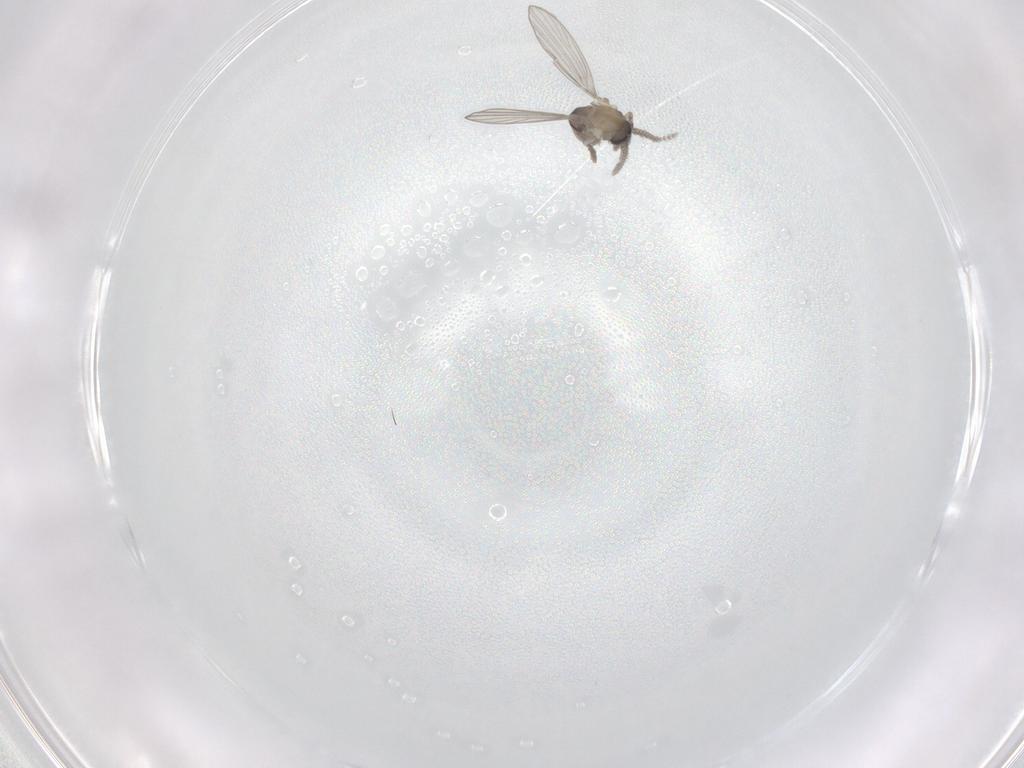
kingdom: Animalia
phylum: Arthropoda
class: Insecta
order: Diptera
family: Psychodidae
